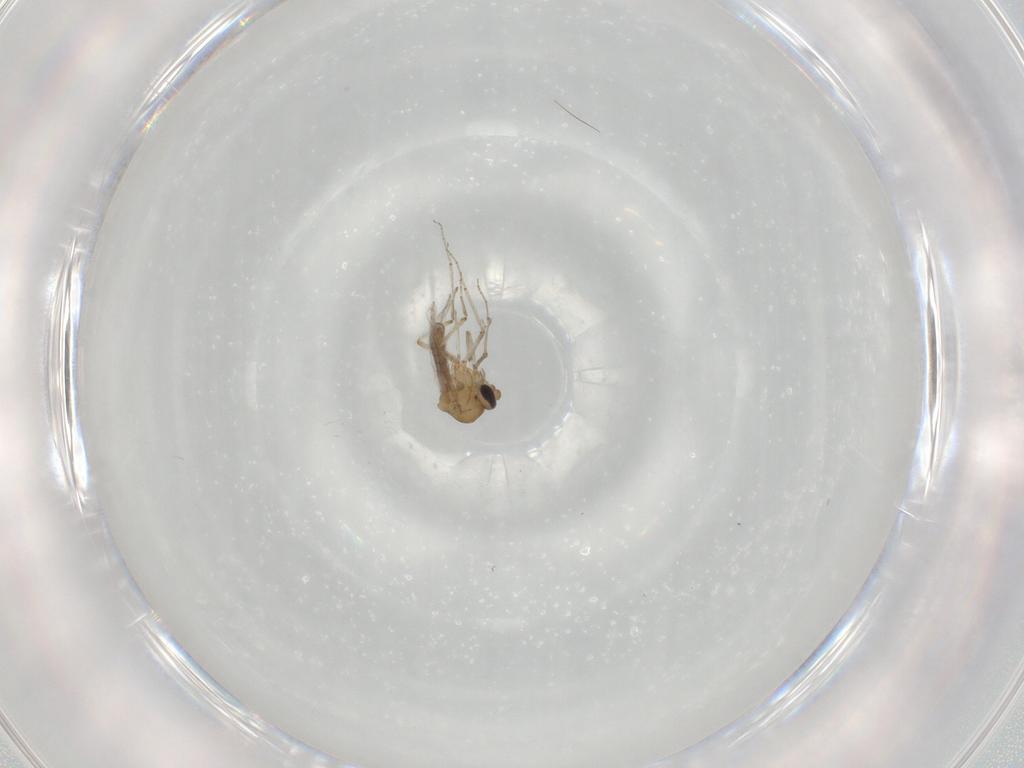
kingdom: Animalia
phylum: Arthropoda
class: Insecta
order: Diptera
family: Ceratopogonidae
